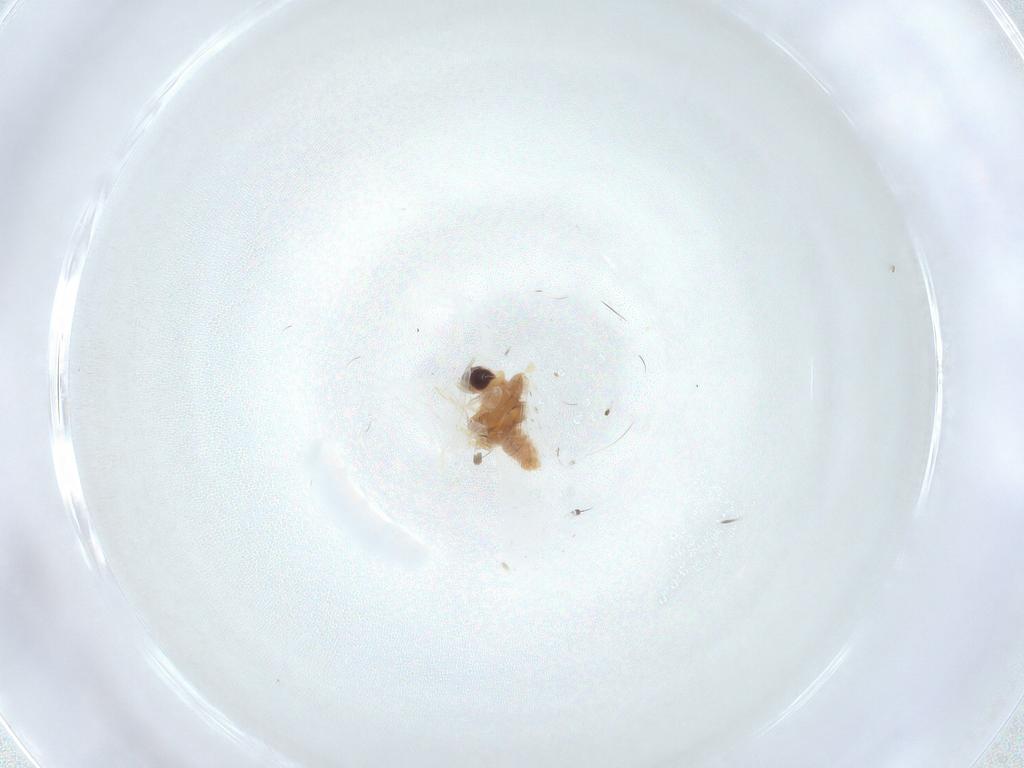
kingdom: Animalia
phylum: Arthropoda
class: Insecta
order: Lepidoptera
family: Gelechiidae
